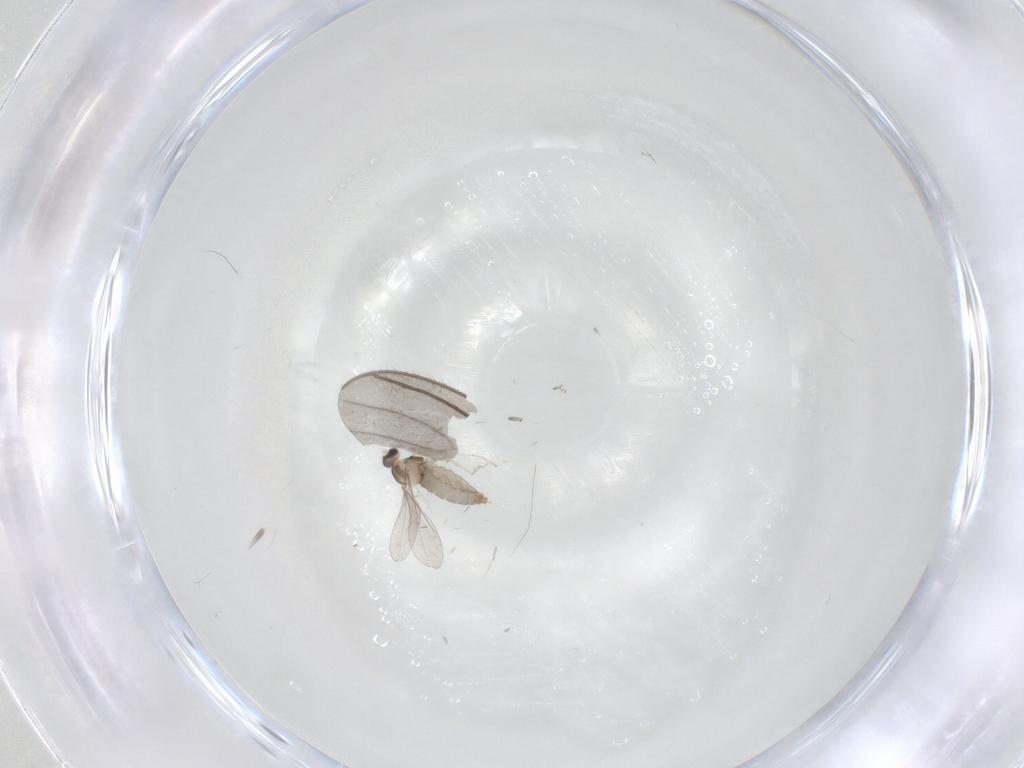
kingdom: Animalia
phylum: Arthropoda
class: Insecta
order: Diptera
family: Cecidomyiidae
